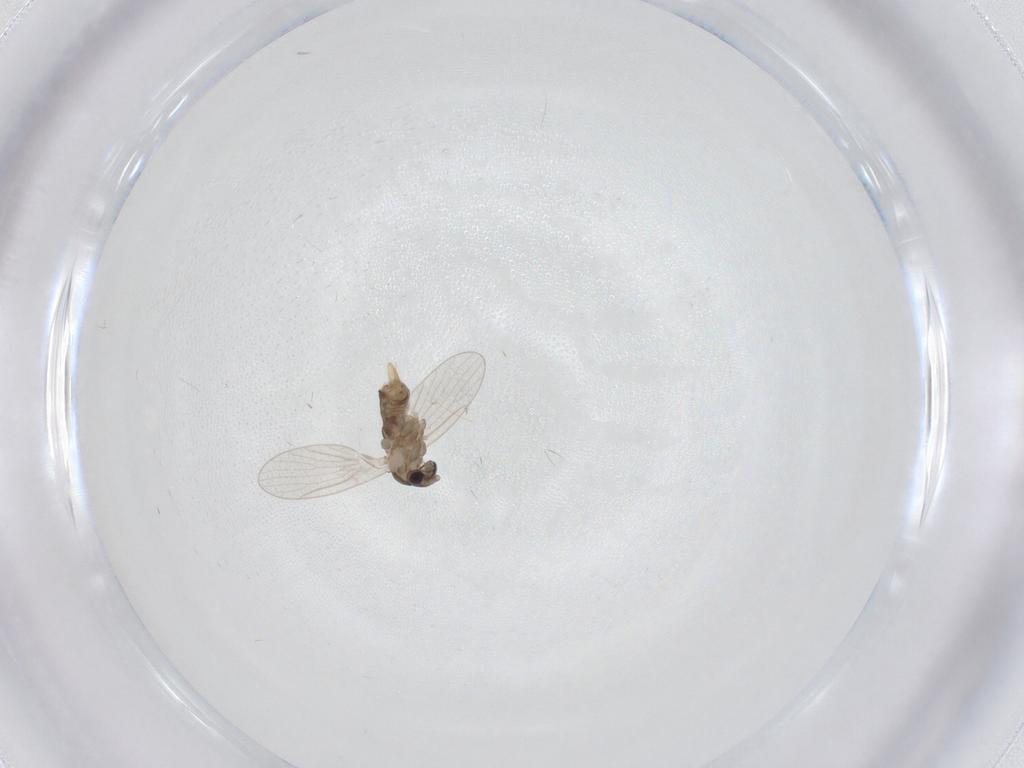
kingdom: Animalia
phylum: Arthropoda
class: Insecta
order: Diptera
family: Psychodidae
